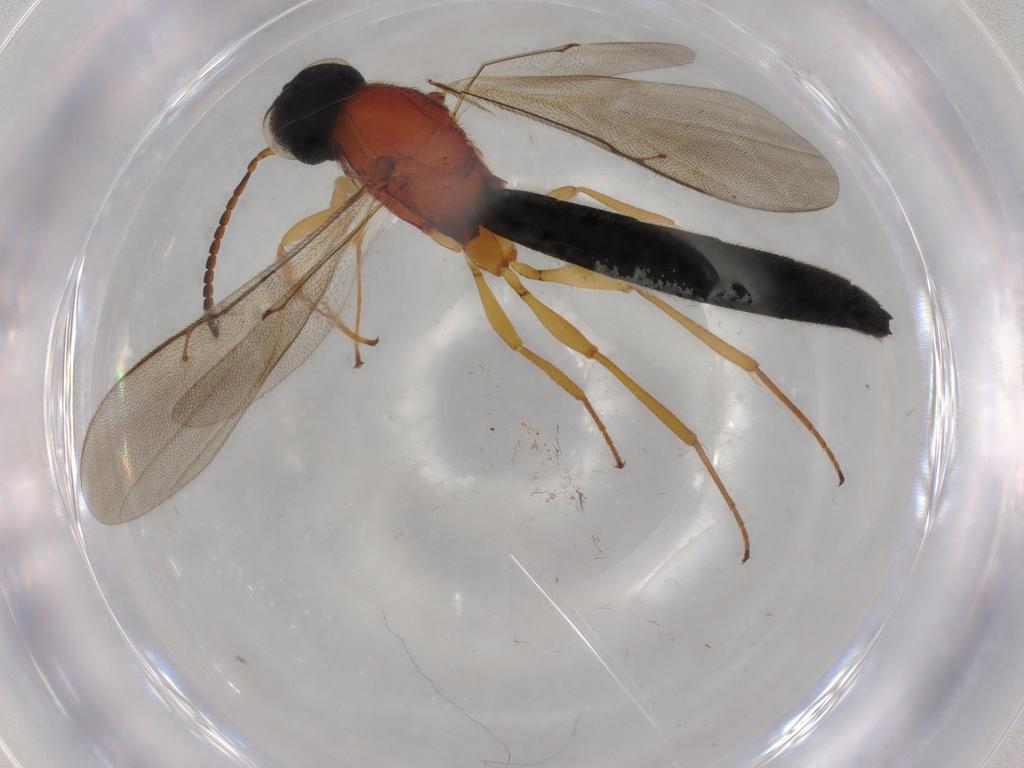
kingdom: Animalia
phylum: Arthropoda
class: Insecta
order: Hymenoptera
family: Scelionidae
